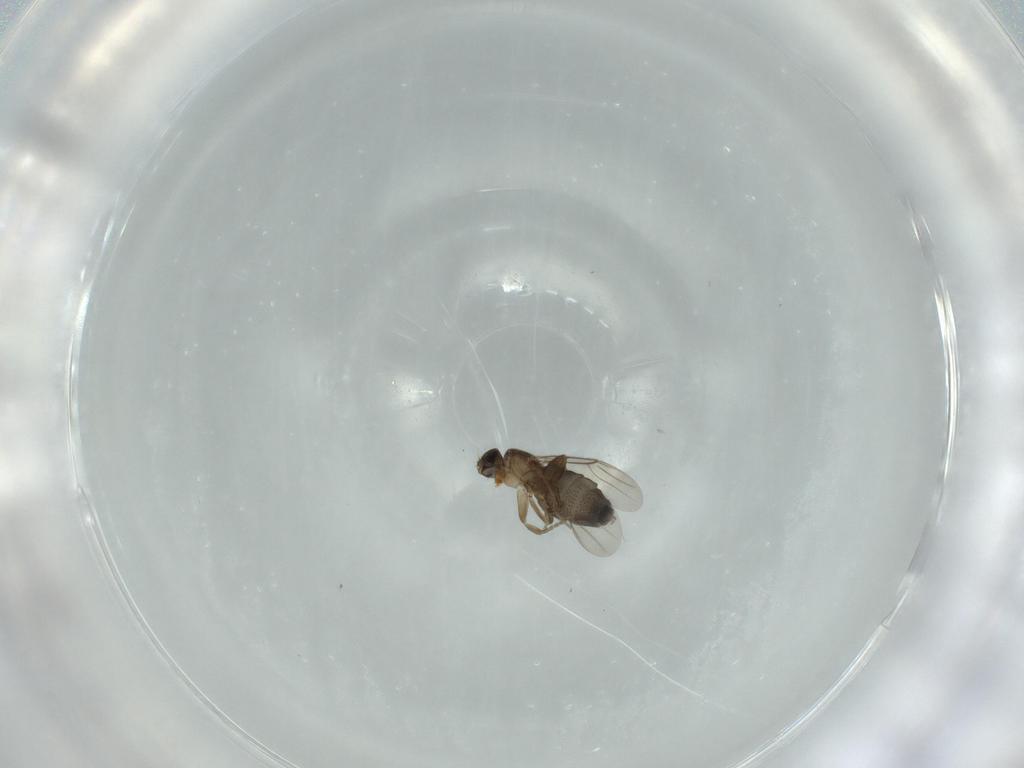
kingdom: Animalia
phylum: Arthropoda
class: Insecta
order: Diptera
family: Phoridae
